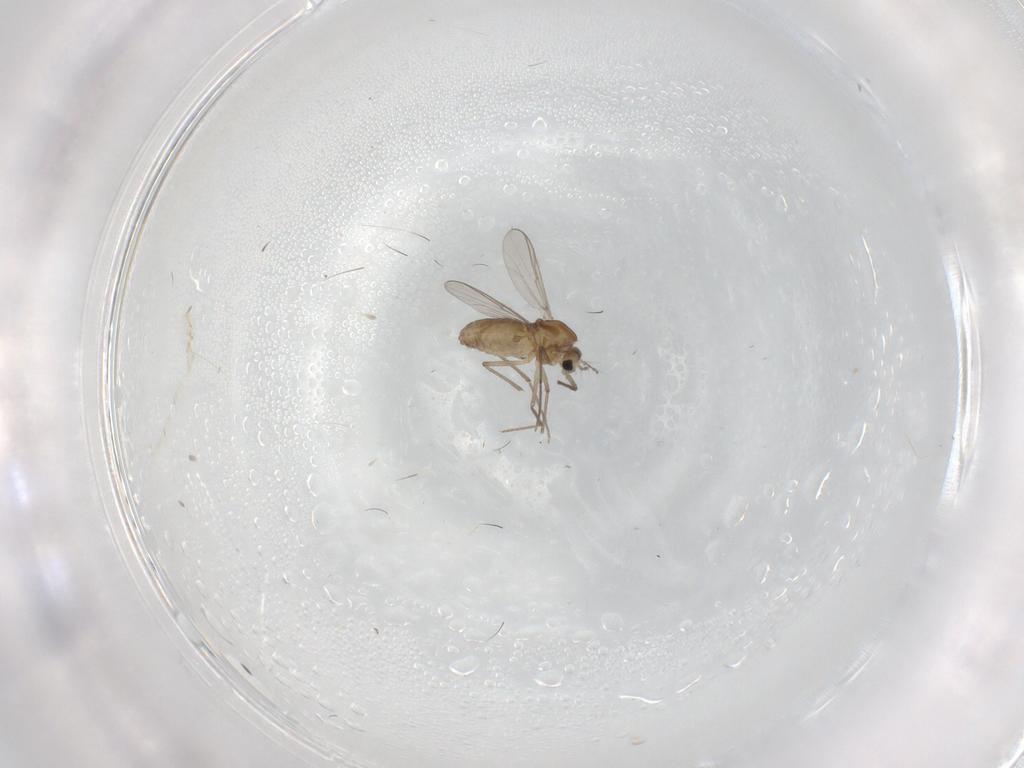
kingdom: Animalia
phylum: Arthropoda
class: Insecta
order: Diptera
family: Chironomidae
